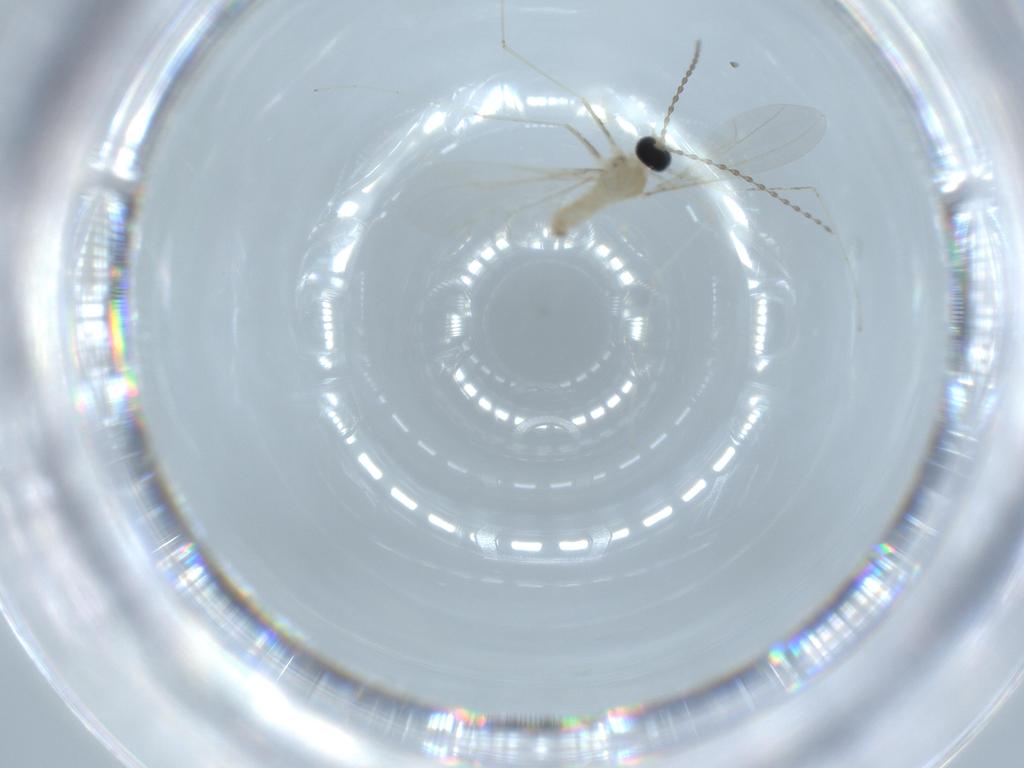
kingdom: Animalia
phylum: Arthropoda
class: Insecta
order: Diptera
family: Cecidomyiidae
